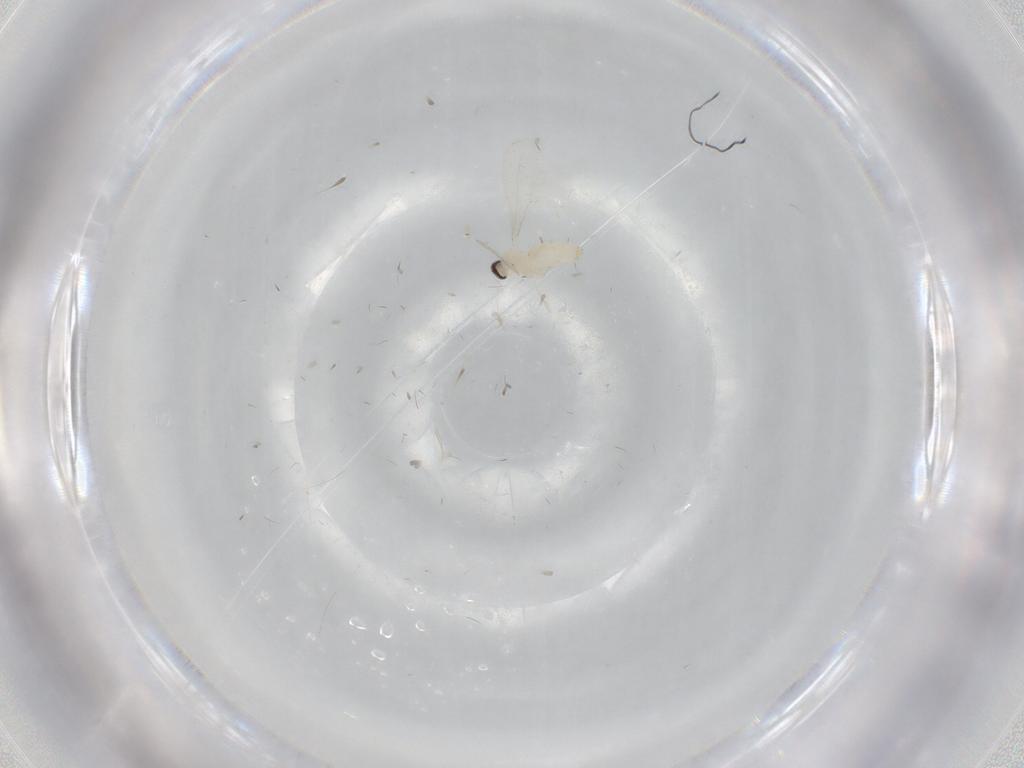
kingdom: Animalia
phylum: Arthropoda
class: Insecta
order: Diptera
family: Cecidomyiidae
